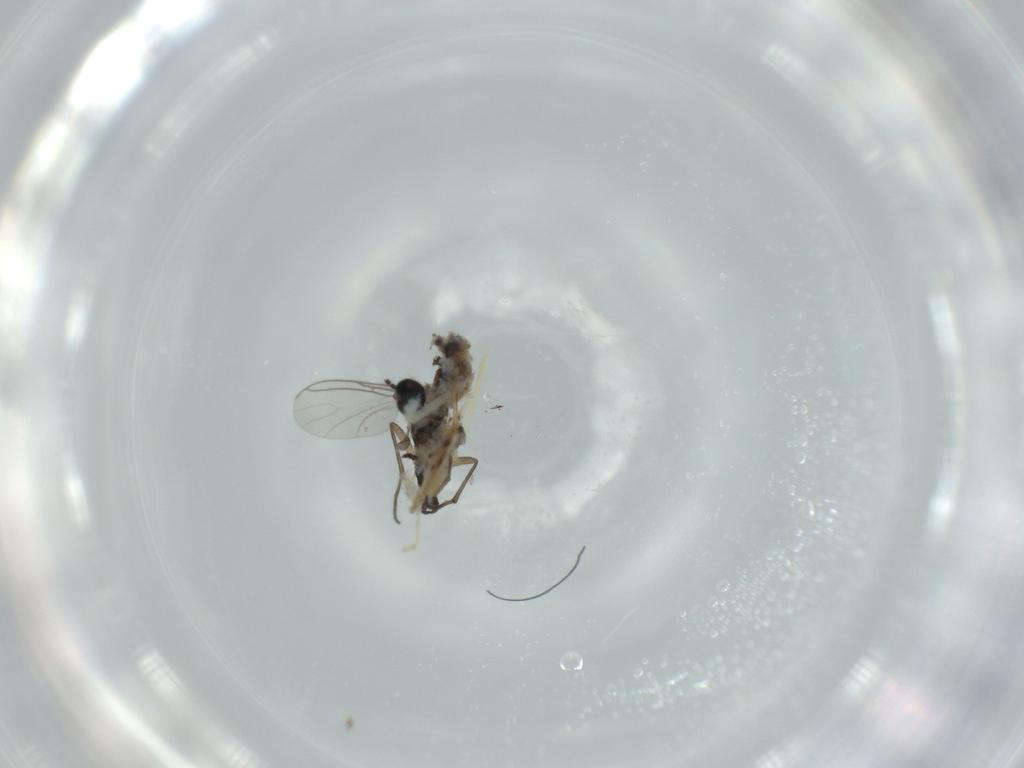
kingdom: Animalia
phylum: Arthropoda
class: Insecta
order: Diptera
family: Sciaridae
